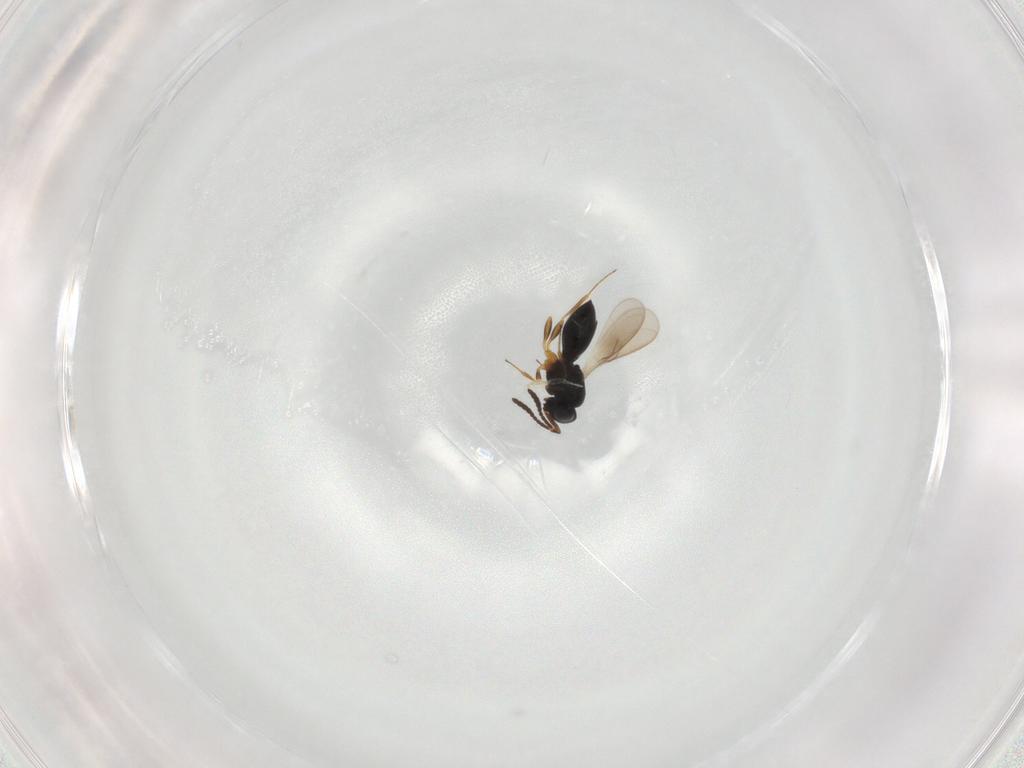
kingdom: Animalia
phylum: Arthropoda
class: Insecta
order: Hymenoptera
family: Scelionidae
